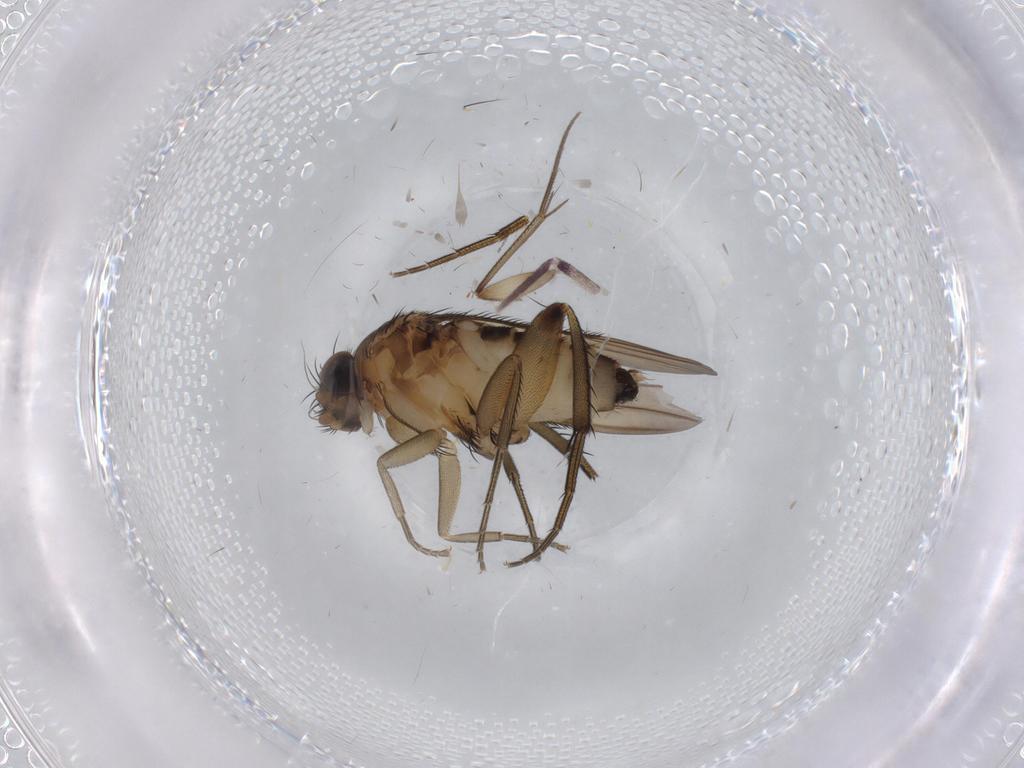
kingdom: Animalia
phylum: Arthropoda
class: Insecta
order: Diptera
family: Phoridae
